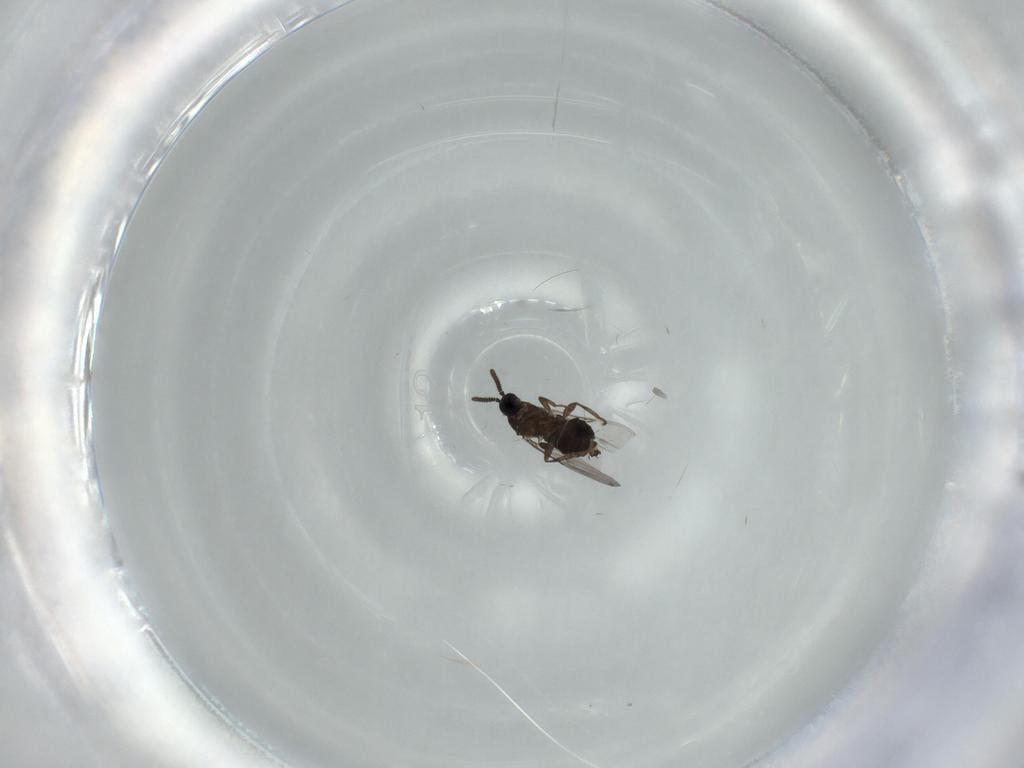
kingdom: Animalia
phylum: Arthropoda
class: Insecta
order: Diptera
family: Scatopsidae
